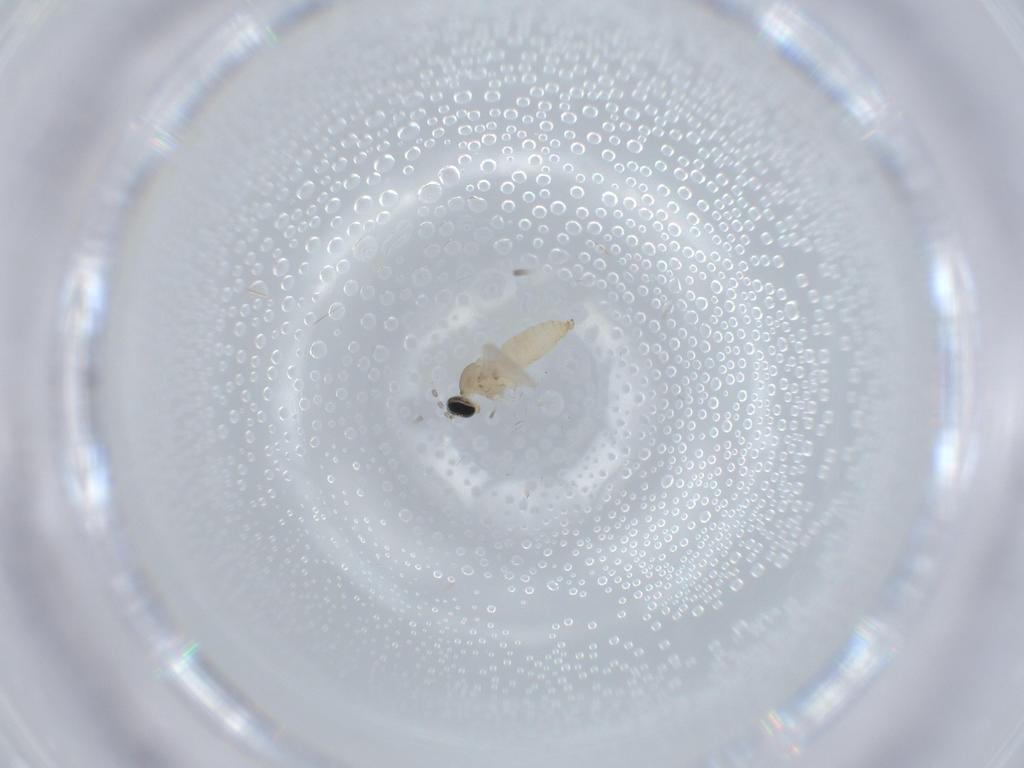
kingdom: Animalia
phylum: Arthropoda
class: Insecta
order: Diptera
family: Cecidomyiidae
